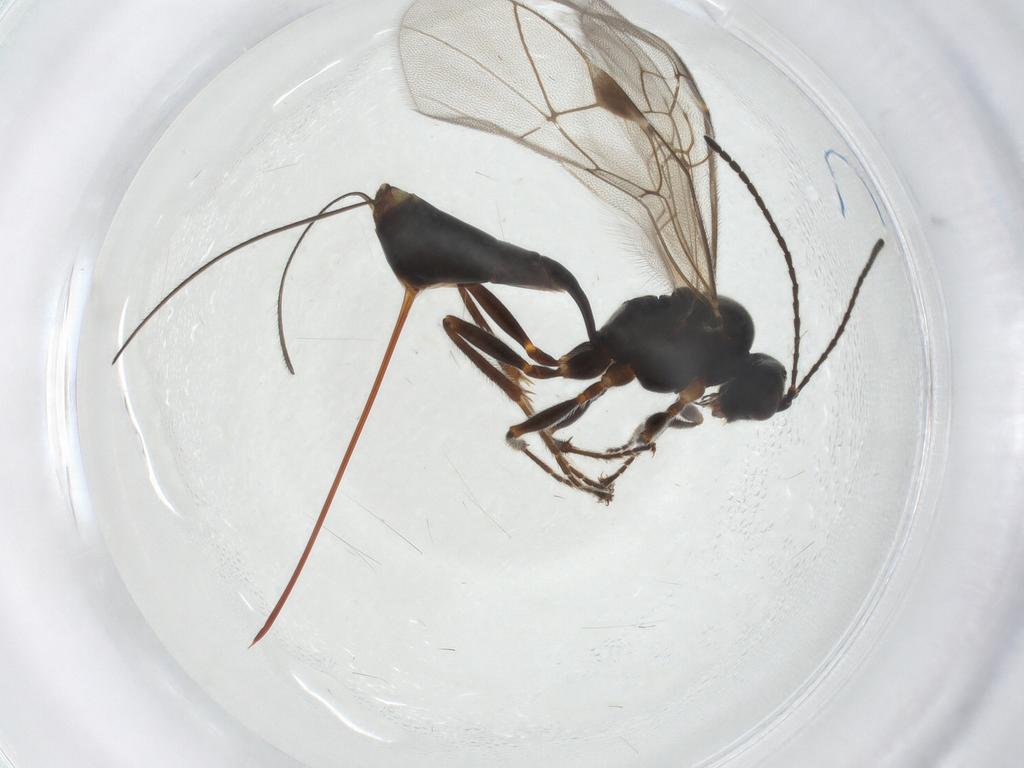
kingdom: Animalia
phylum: Arthropoda
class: Insecta
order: Hymenoptera
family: Ichneumonidae
